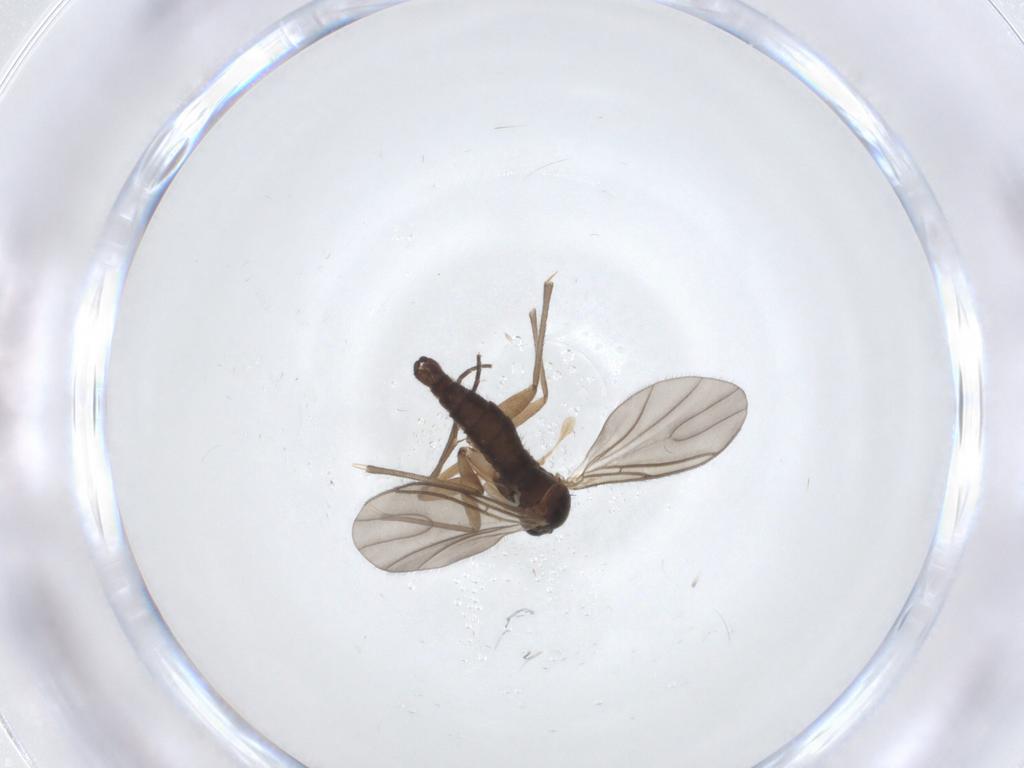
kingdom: Animalia
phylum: Arthropoda
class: Insecta
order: Diptera
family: Sciaridae
